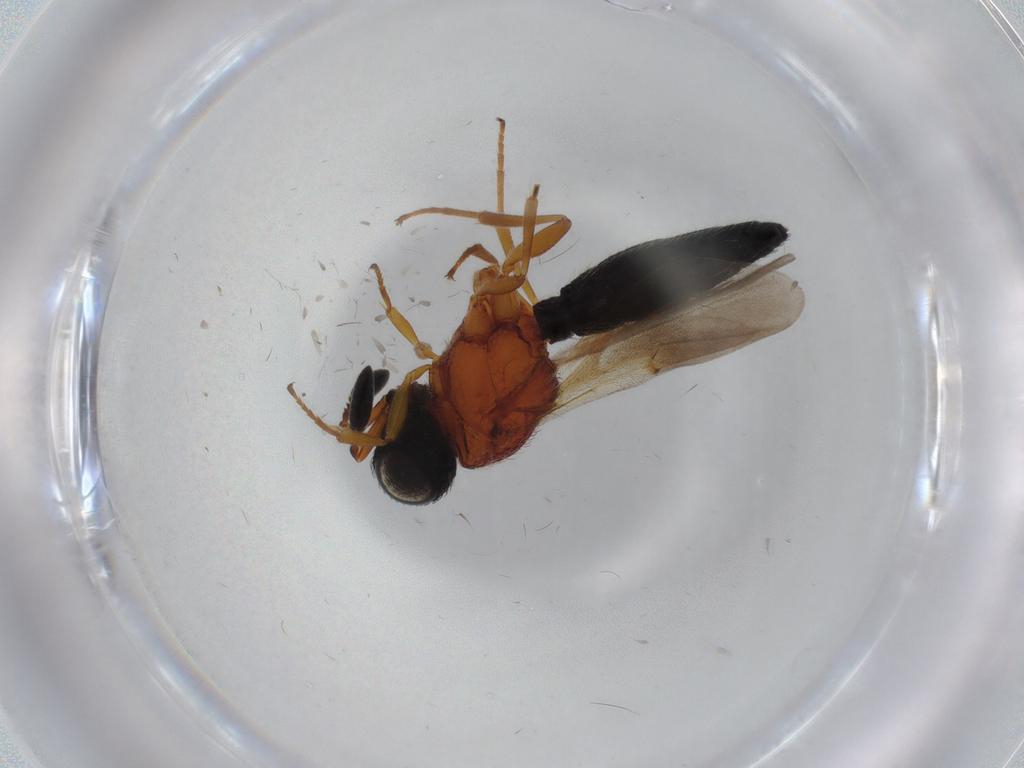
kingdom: Animalia
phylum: Arthropoda
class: Insecta
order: Hymenoptera
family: Scelionidae
